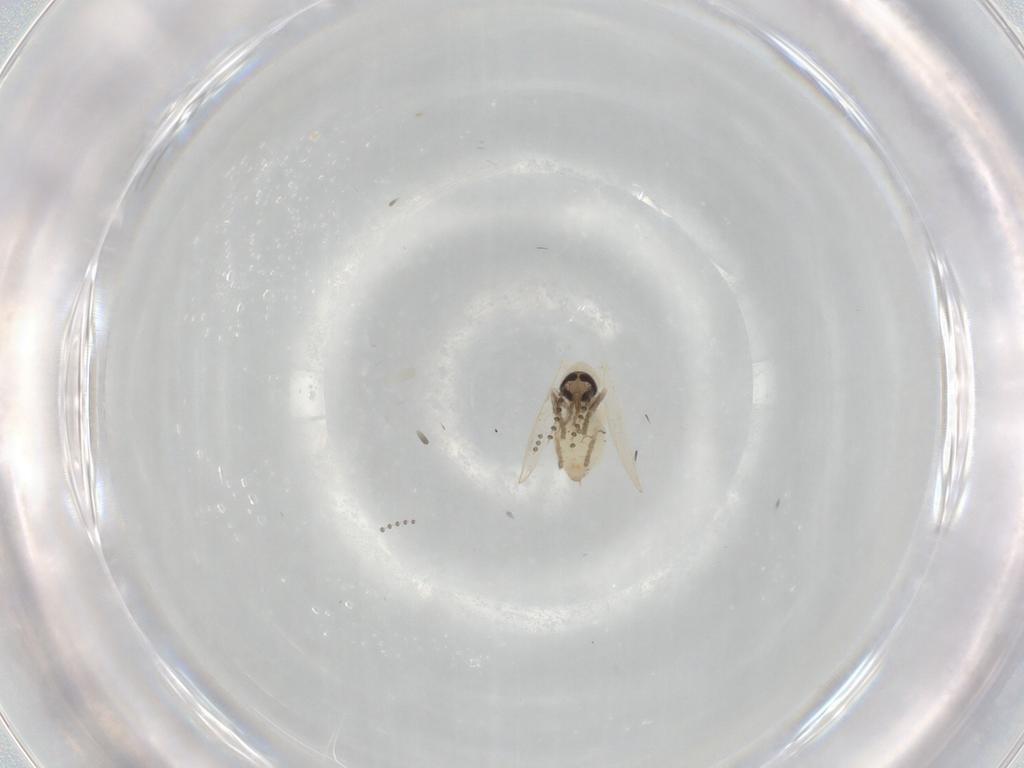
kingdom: Animalia
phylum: Arthropoda
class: Insecta
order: Diptera
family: Psychodidae
